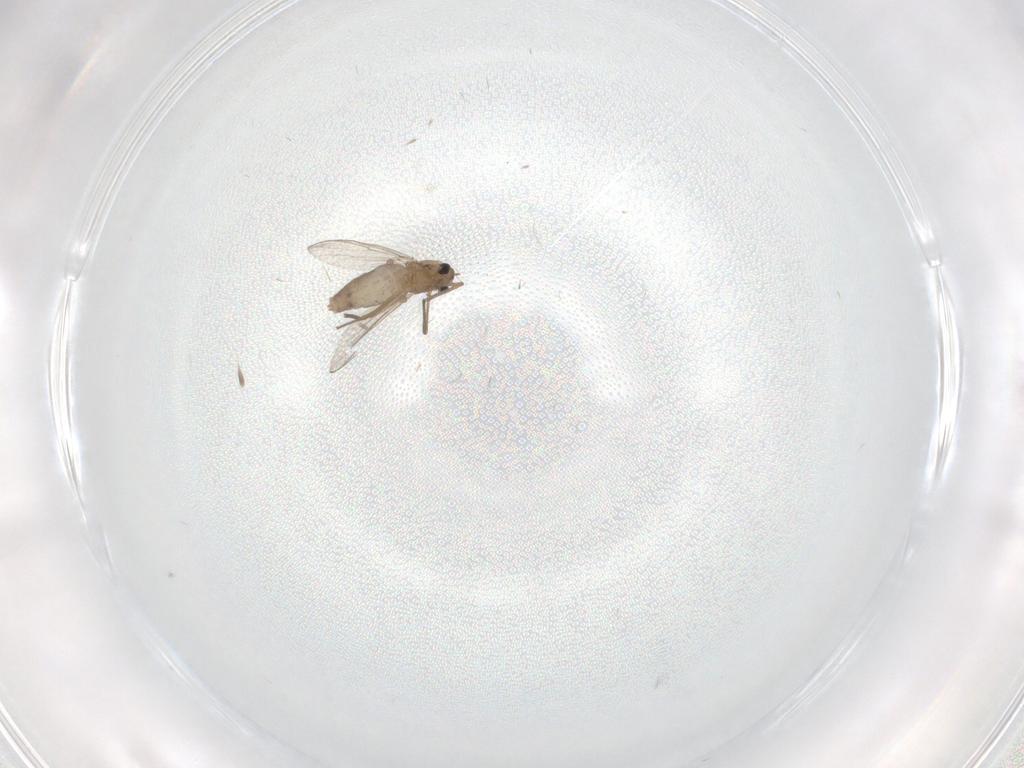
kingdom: Animalia
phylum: Arthropoda
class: Insecta
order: Diptera
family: Chironomidae
